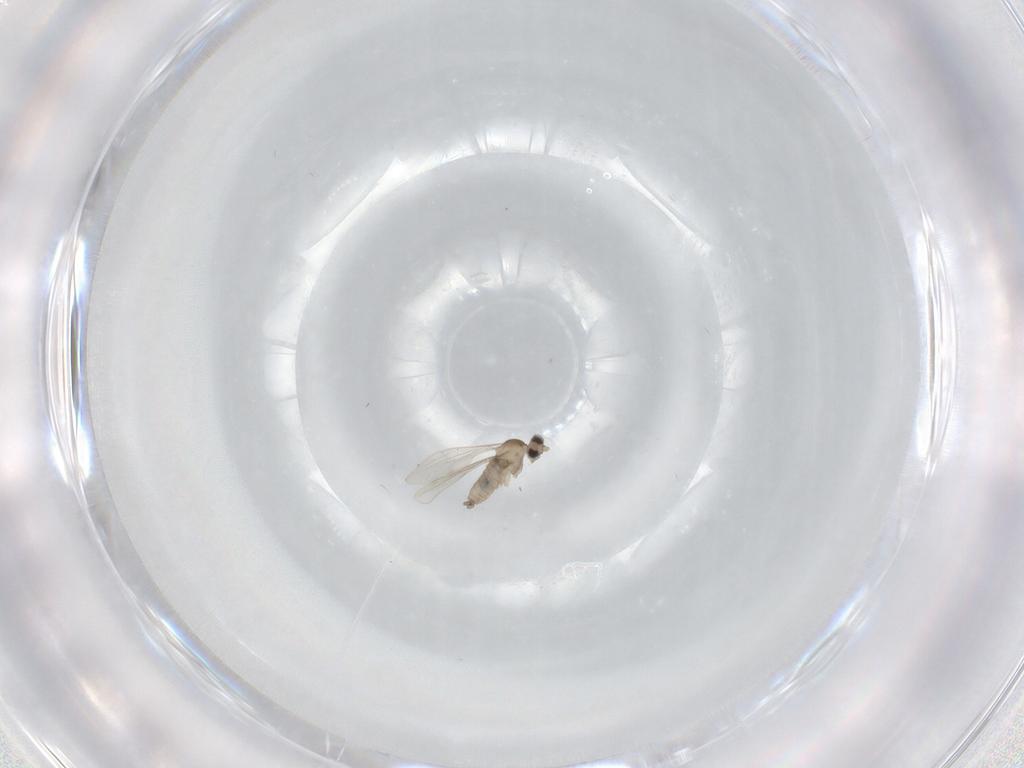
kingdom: Animalia
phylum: Arthropoda
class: Insecta
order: Diptera
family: Cecidomyiidae
